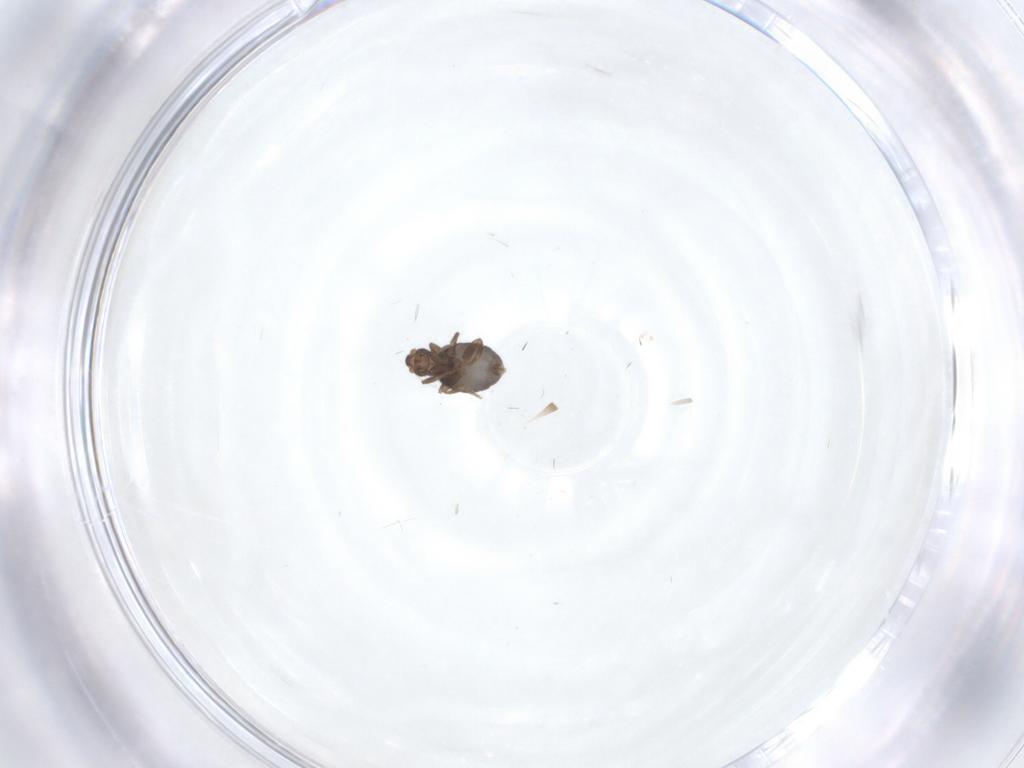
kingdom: Animalia
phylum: Arthropoda
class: Insecta
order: Diptera
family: Phoridae
